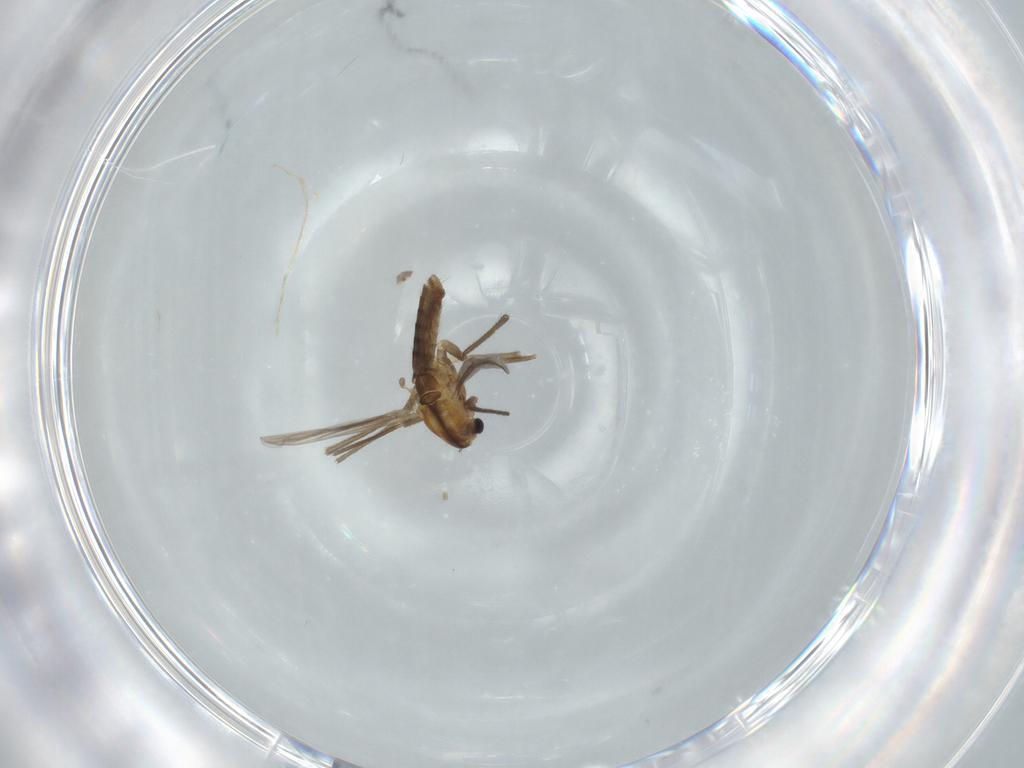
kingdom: Animalia
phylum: Arthropoda
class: Insecta
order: Diptera
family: Chironomidae
